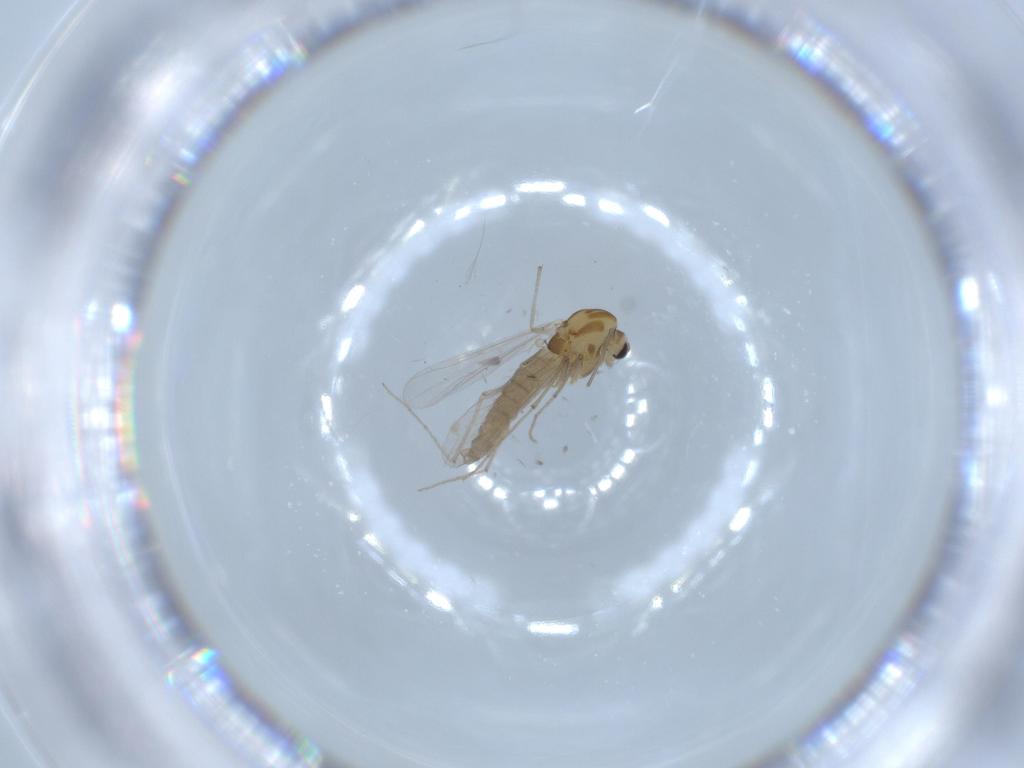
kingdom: Animalia
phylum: Arthropoda
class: Insecta
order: Diptera
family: Chironomidae
